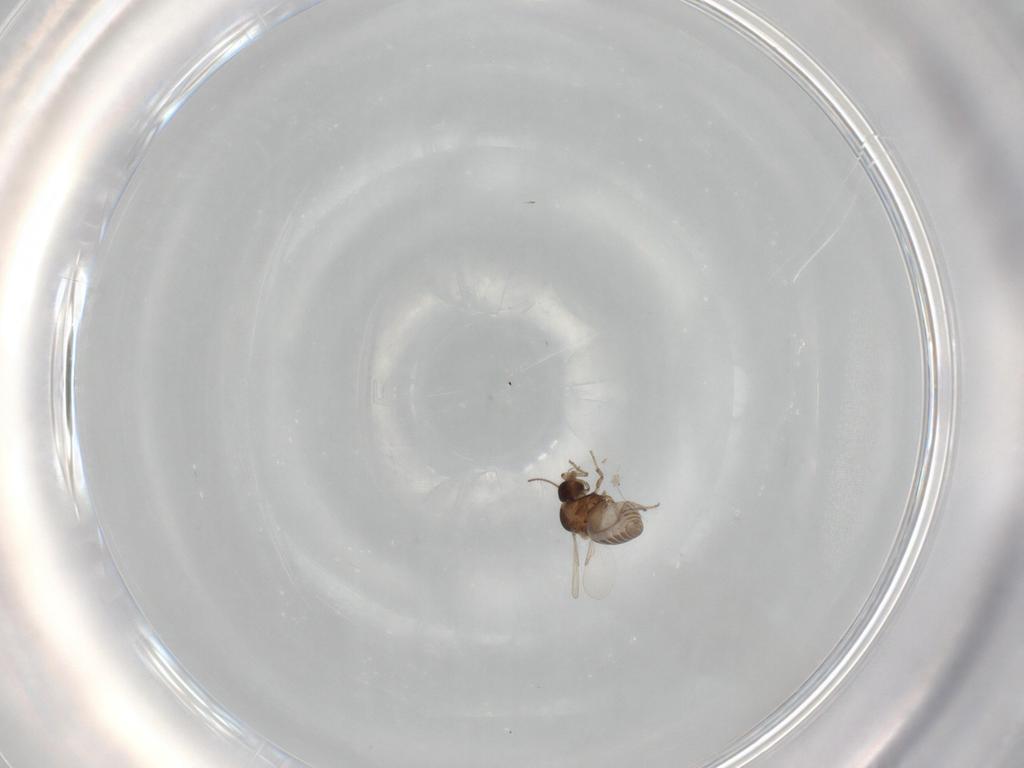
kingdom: Animalia
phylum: Arthropoda
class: Insecta
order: Diptera
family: Ceratopogonidae
